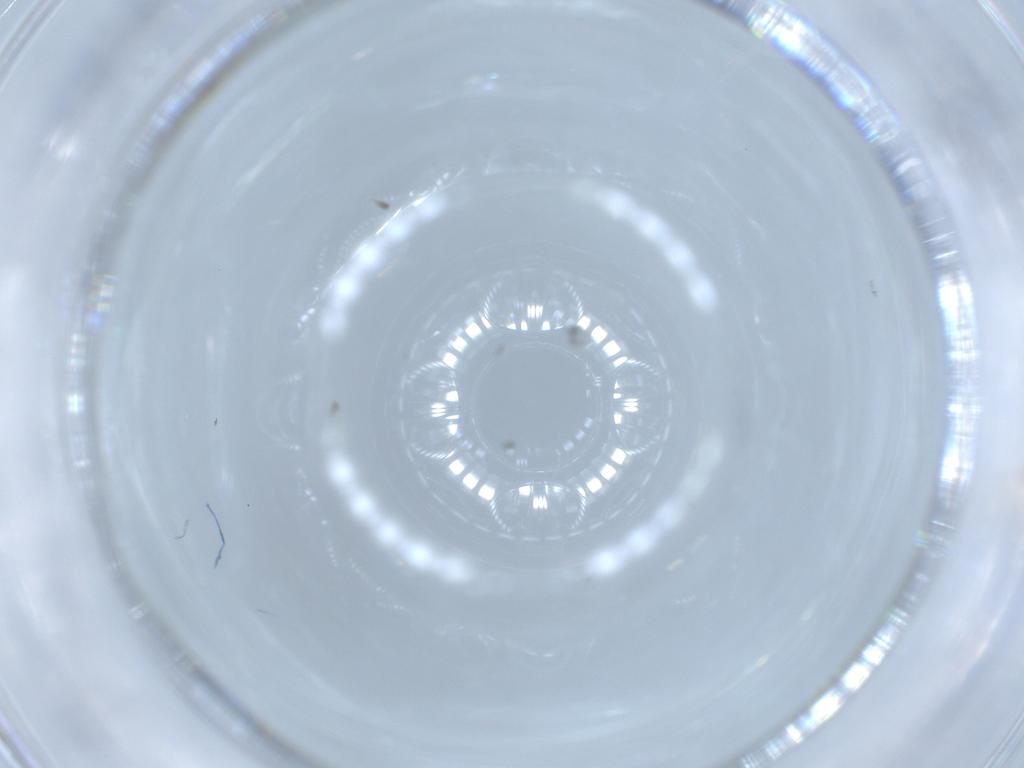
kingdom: Animalia
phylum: Arthropoda
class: Insecta
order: Diptera
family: Cecidomyiidae
